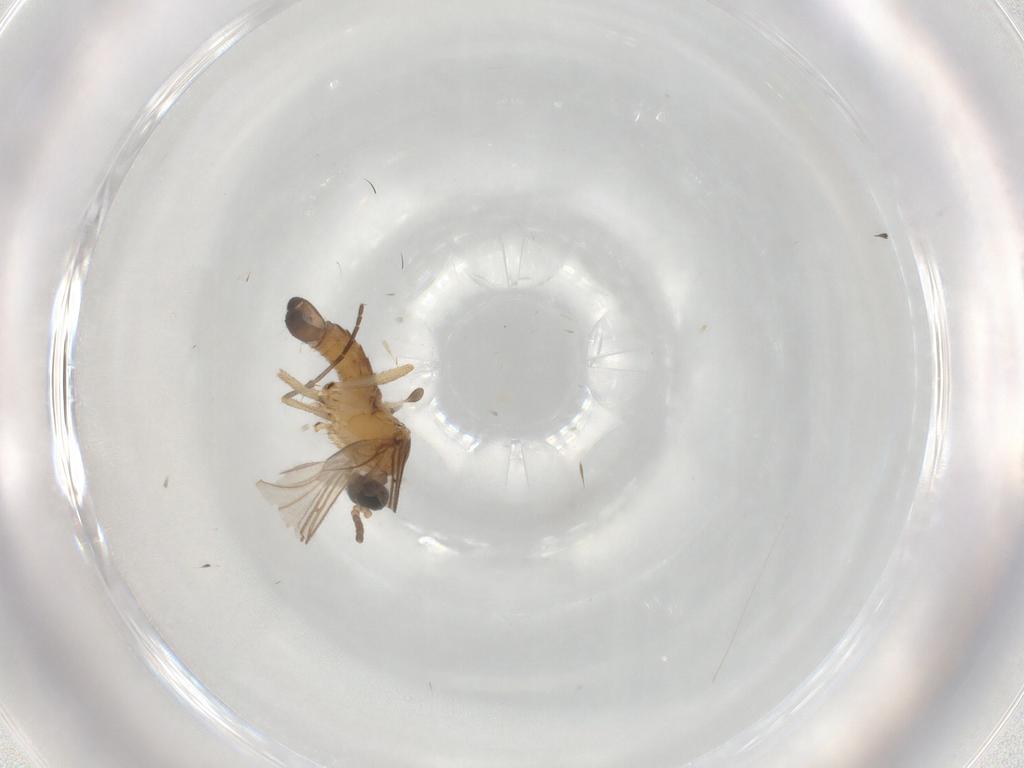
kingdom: Animalia
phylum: Arthropoda
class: Insecta
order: Diptera
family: Sciaridae
